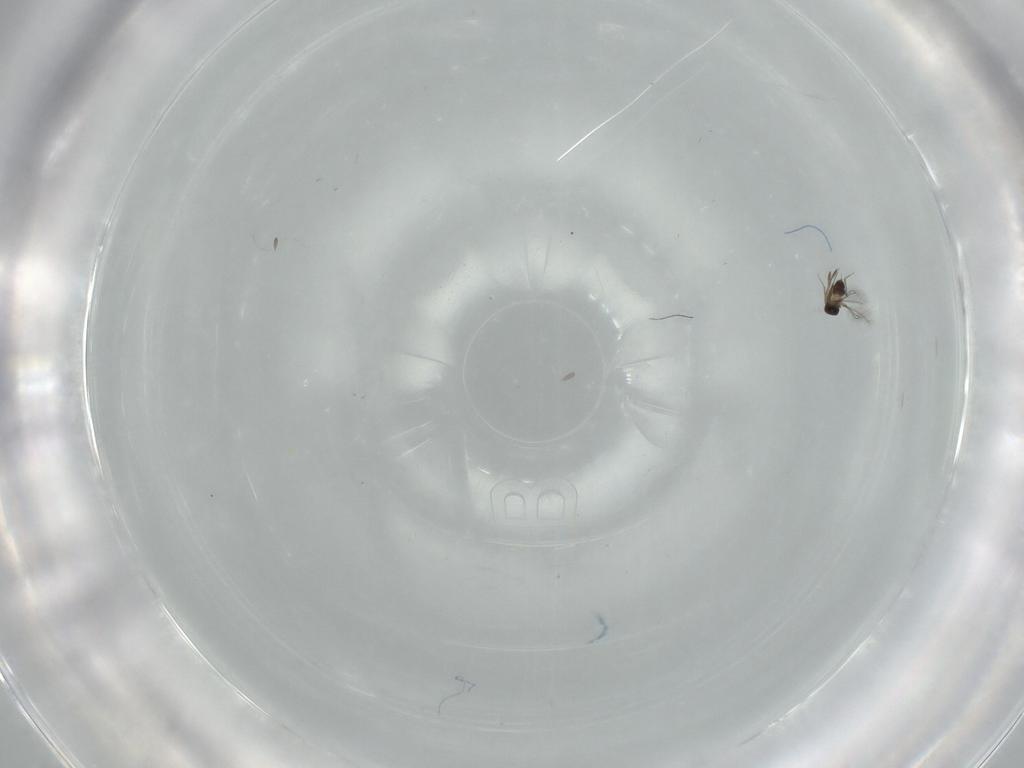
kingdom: Animalia
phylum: Arthropoda
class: Insecta
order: Hymenoptera
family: Mymaridae
